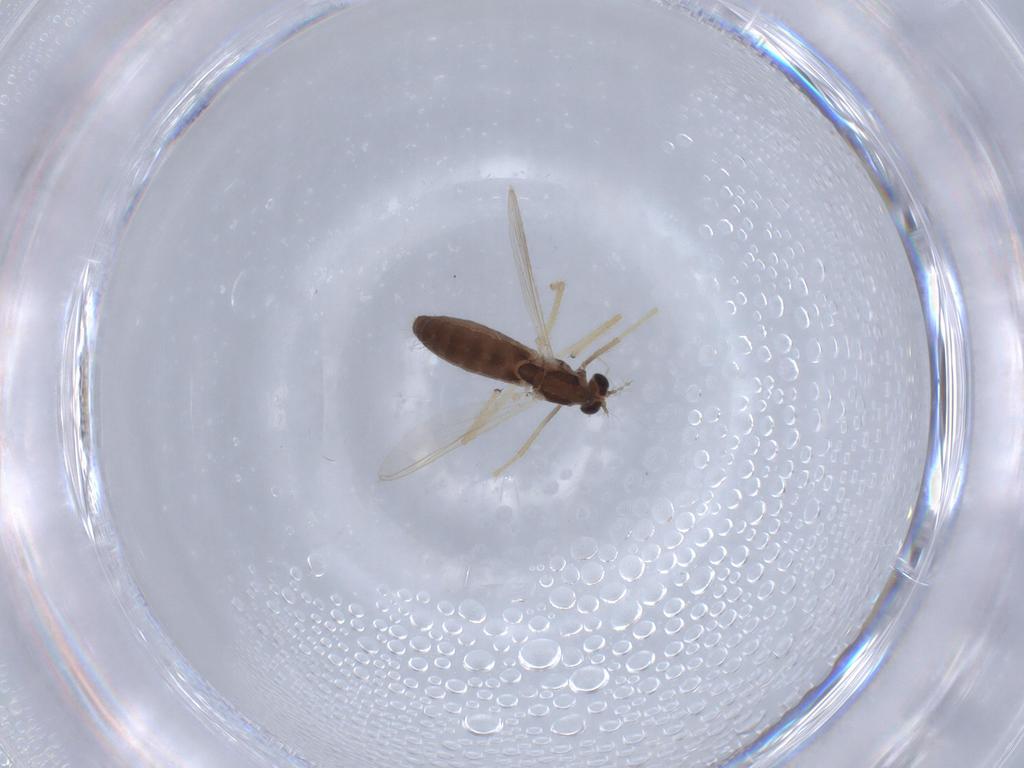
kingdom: Animalia
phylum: Arthropoda
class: Insecta
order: Diptera
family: Chironomidae
